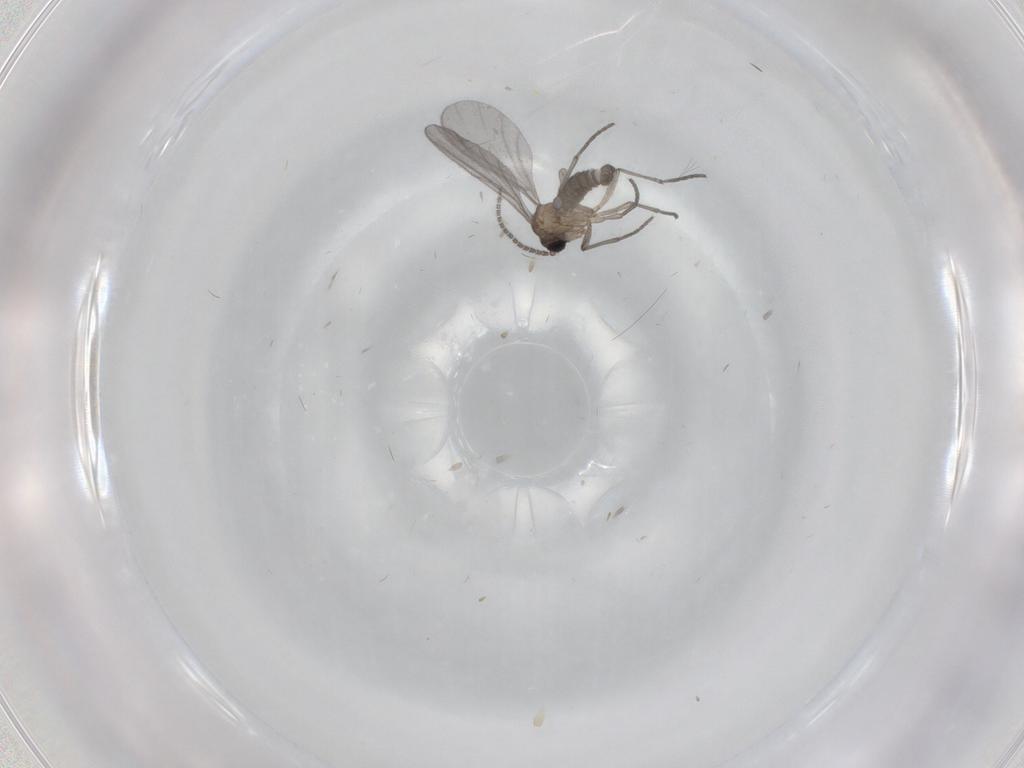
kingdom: Animalia
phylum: Arthropoda
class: Insecta
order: Diptera
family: Sciaridae
